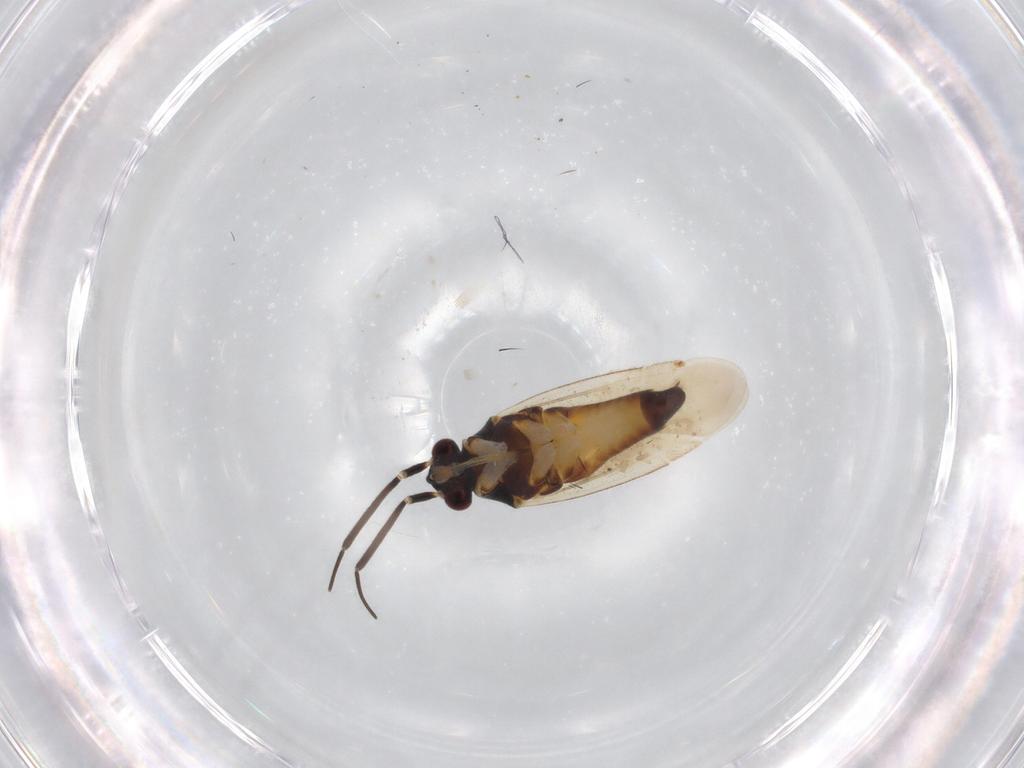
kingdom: Animalia
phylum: Arthropoda
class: Insecta
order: Hemiptera
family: Miridae
